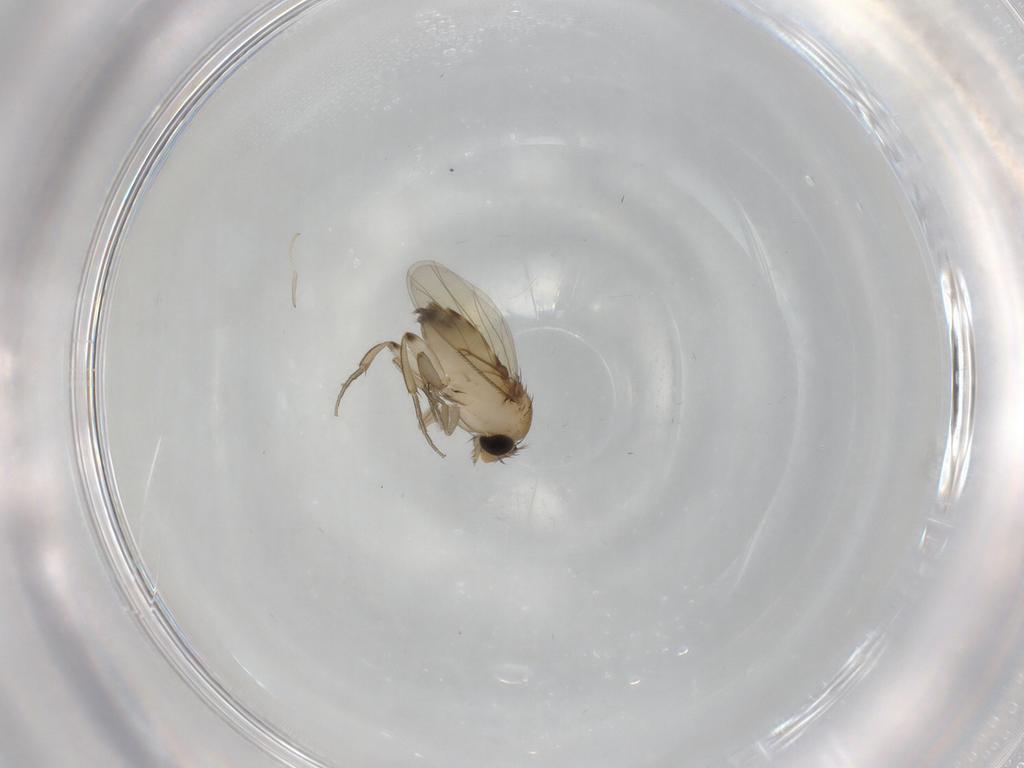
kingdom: Animalia
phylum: Arthropoda
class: Insecta
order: Diptera
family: Phoridae
